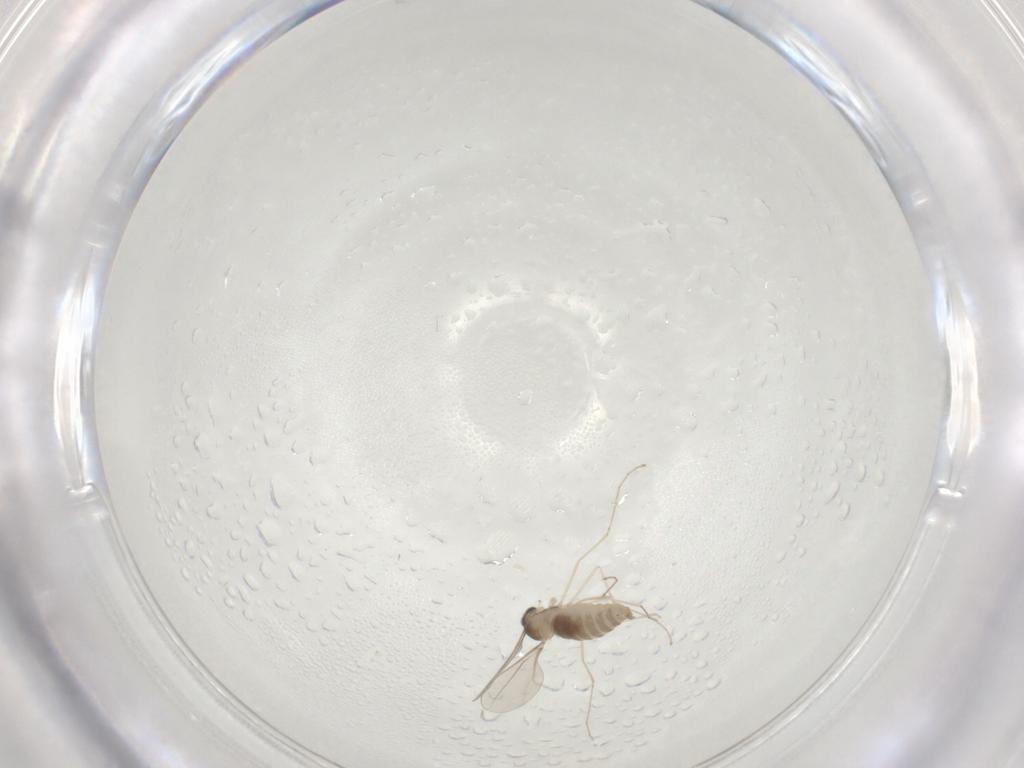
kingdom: Animalia
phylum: Arthropoda
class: Insecta
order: Diptera
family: Cecidomyiidae
